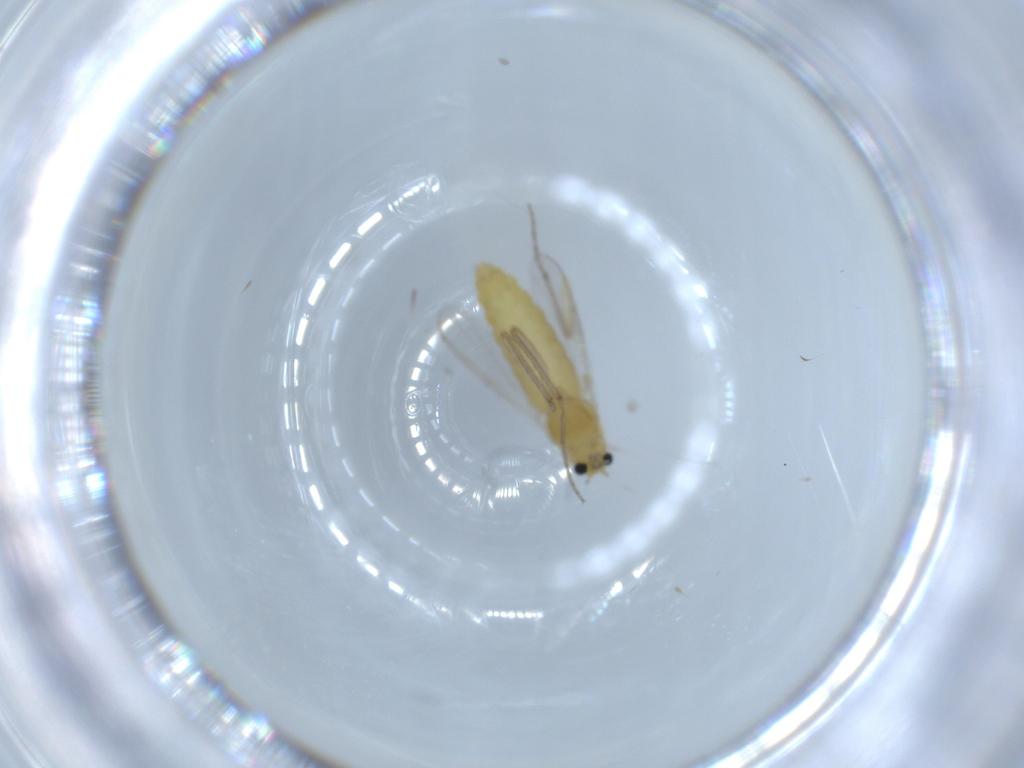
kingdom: Animalia
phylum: Arthropoda
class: Insecta
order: Diptera
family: Chironomidae
